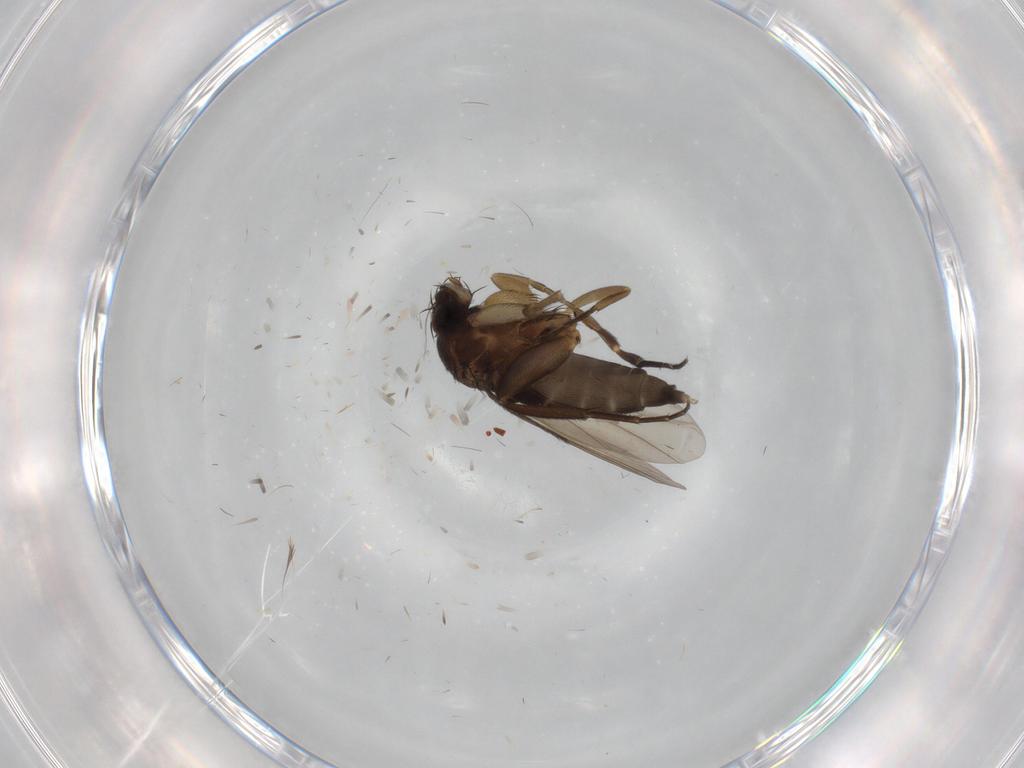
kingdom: Animalia
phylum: Arthropoda
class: Insecta
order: Diptera
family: Phoridae
